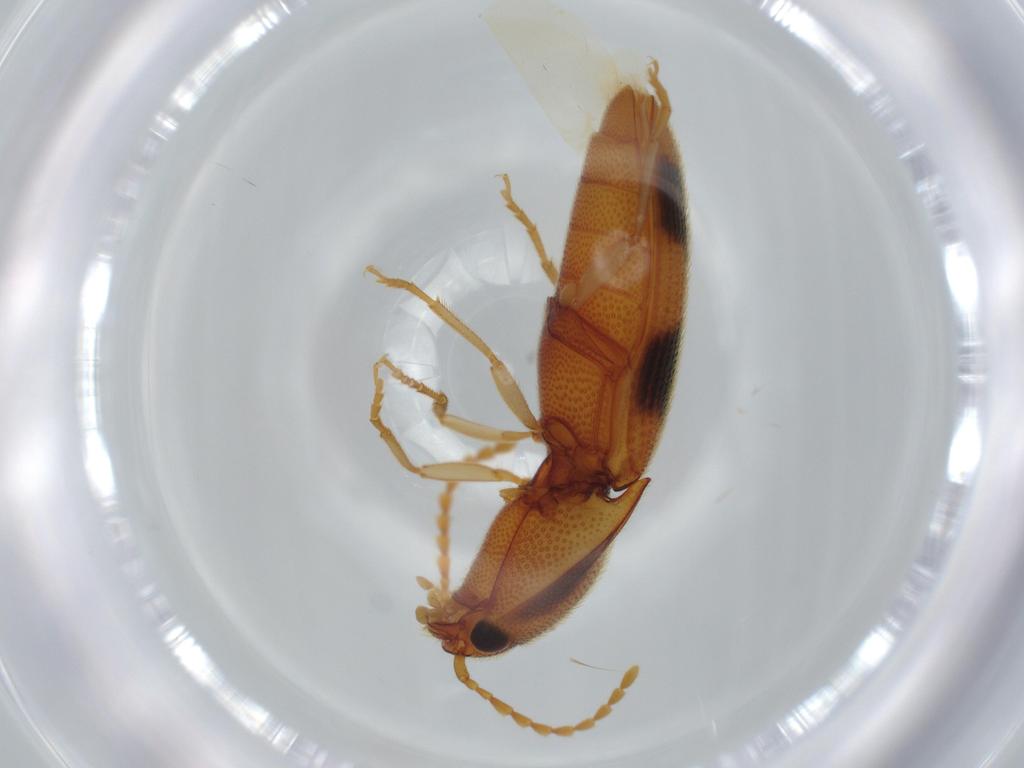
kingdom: Animalia
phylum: Arthropoda
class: Insecta
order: Coleoptera
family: Elateridae
